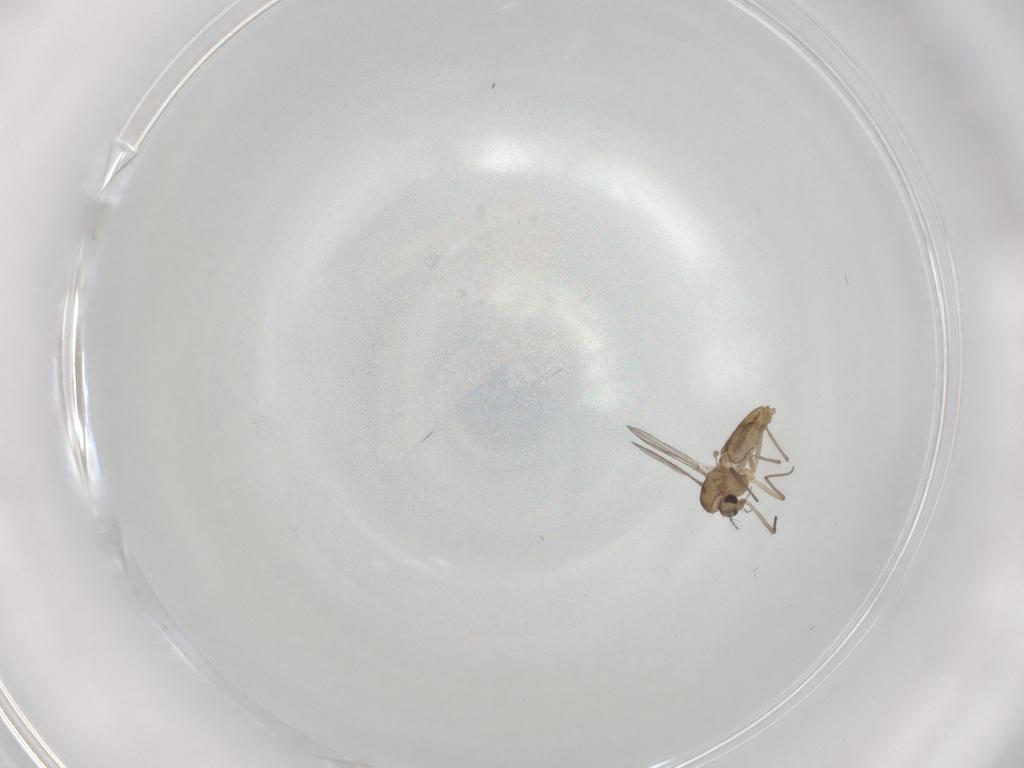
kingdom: Animalia
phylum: Arthropoda
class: Insecta
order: Diptera
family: Chironomidae
